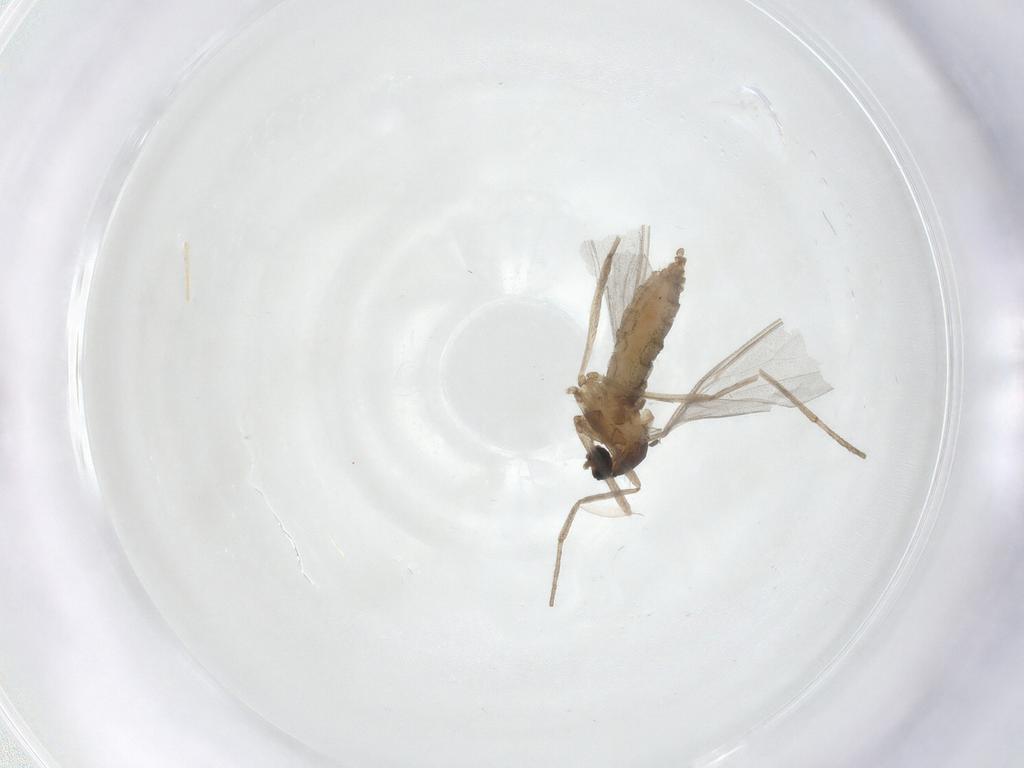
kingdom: Animalia
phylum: Arthropoda
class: Insecta
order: Diptera
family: Cecidomyiidae
